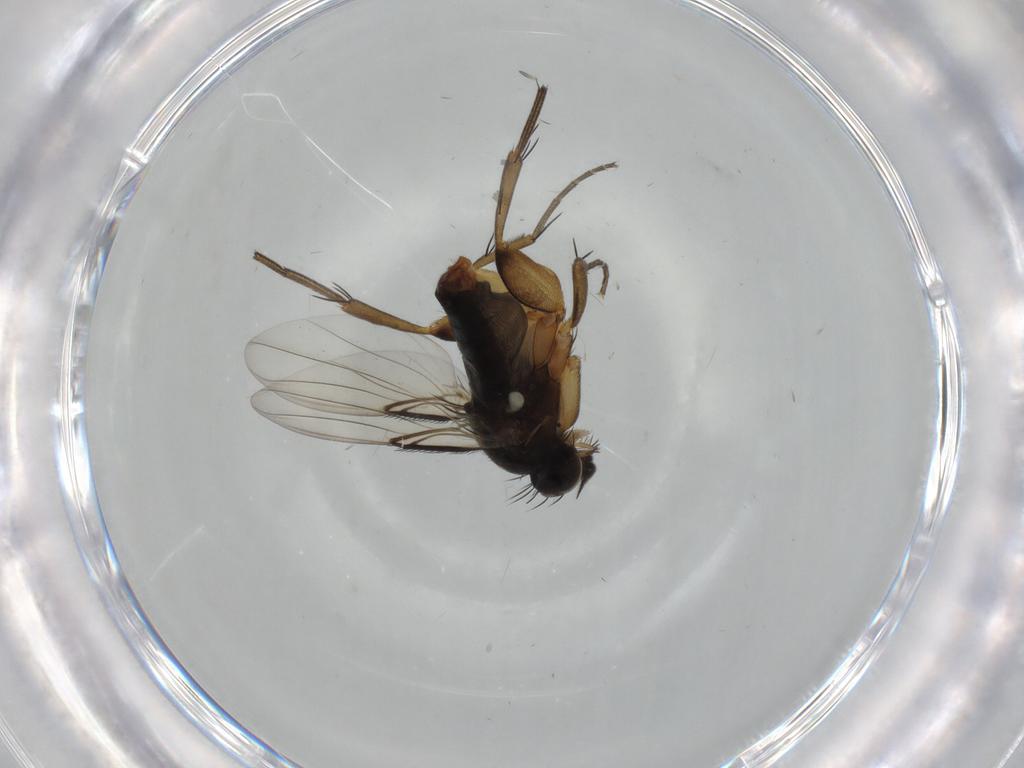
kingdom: Animalia
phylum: Arthropoda
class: Insecta
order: Diptera
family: Phoridae
